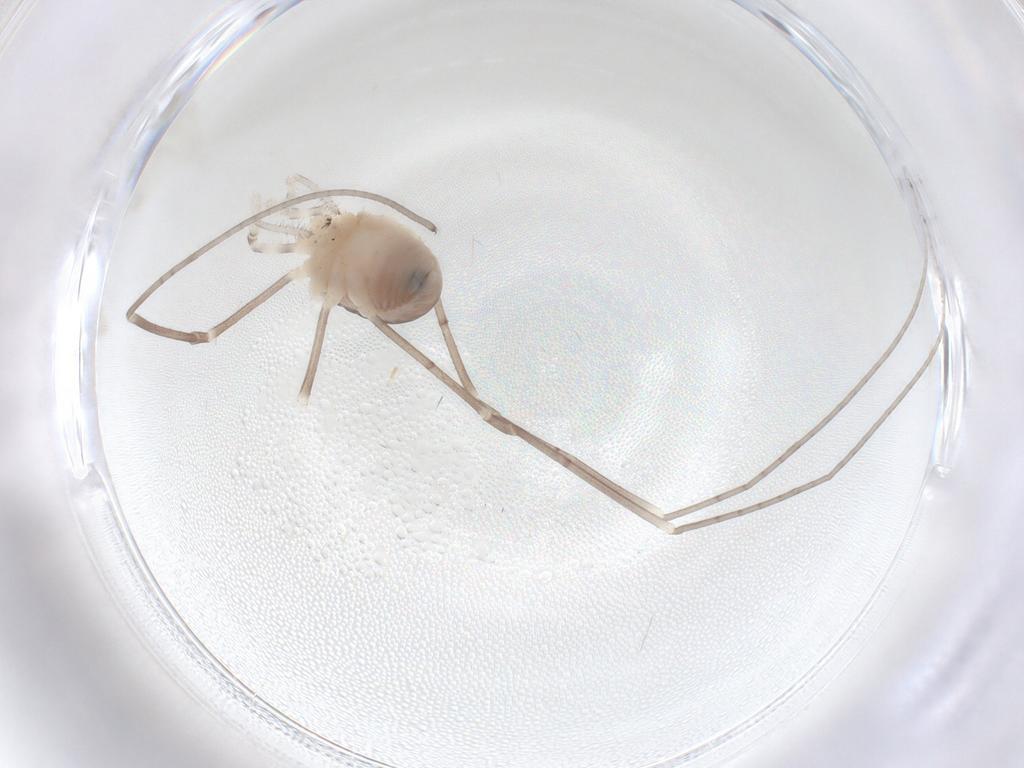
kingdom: Animalia
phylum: Arthropoda
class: Arachnida
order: Opiliones
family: Sclerosomatidae
